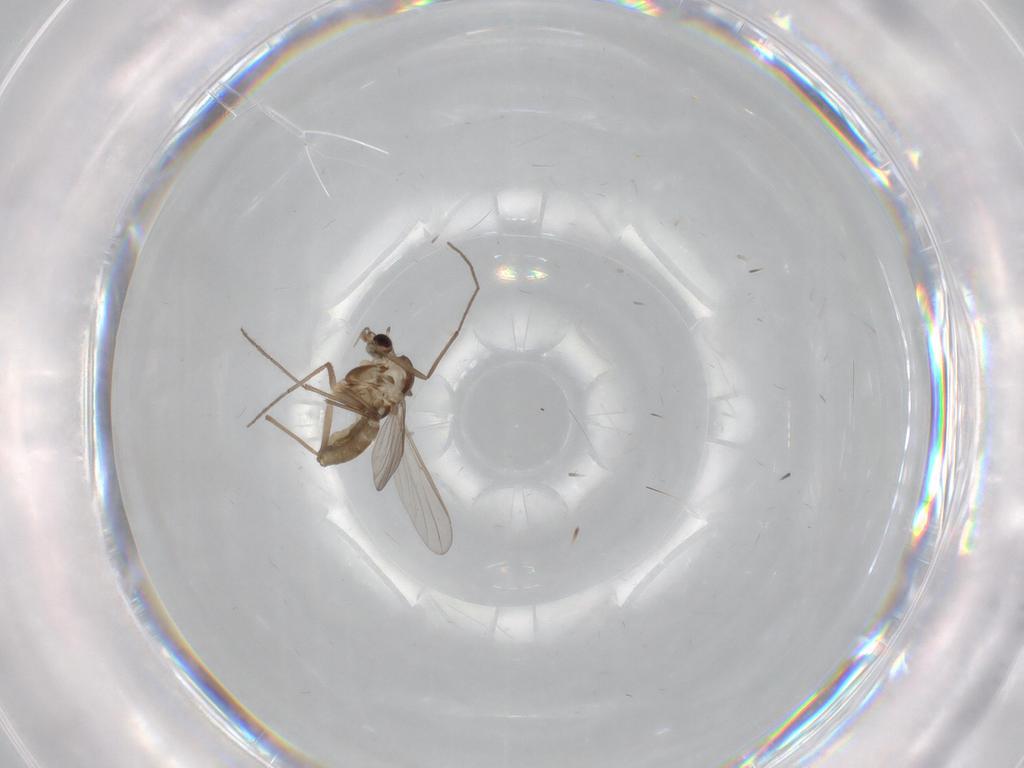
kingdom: Animalia
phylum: Arthropoda
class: Insecta
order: Diptera
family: Chironomidae
